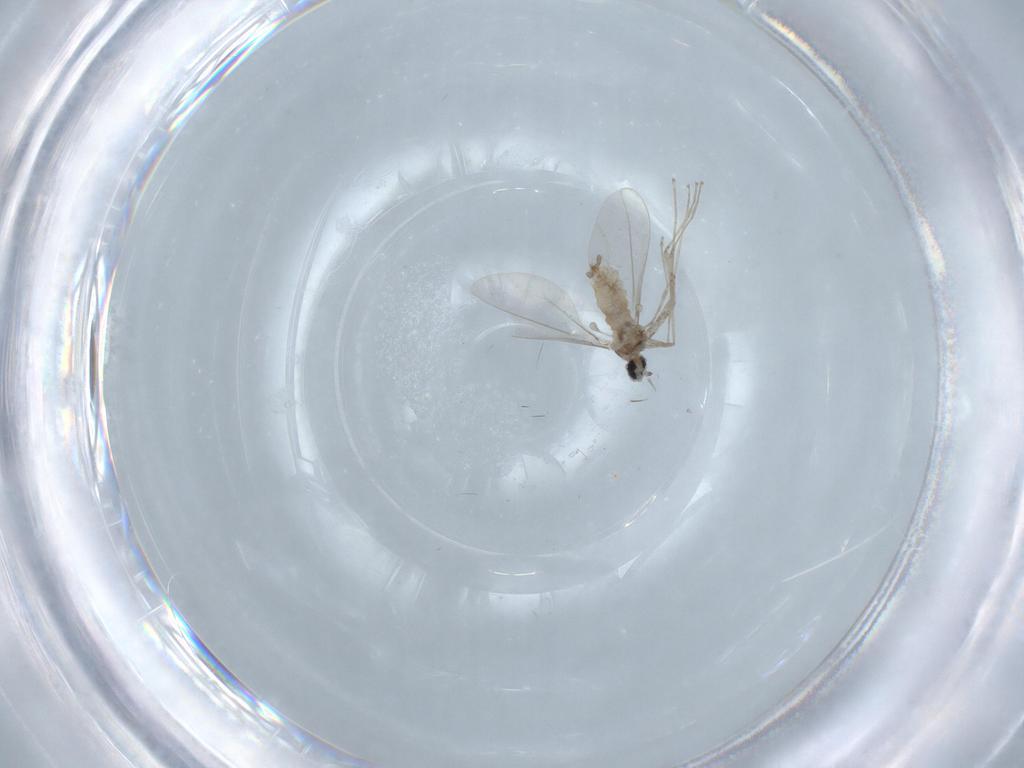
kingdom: Animalia
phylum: Arthropoda
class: Insecta
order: Diptera
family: Cecidomyiidae
